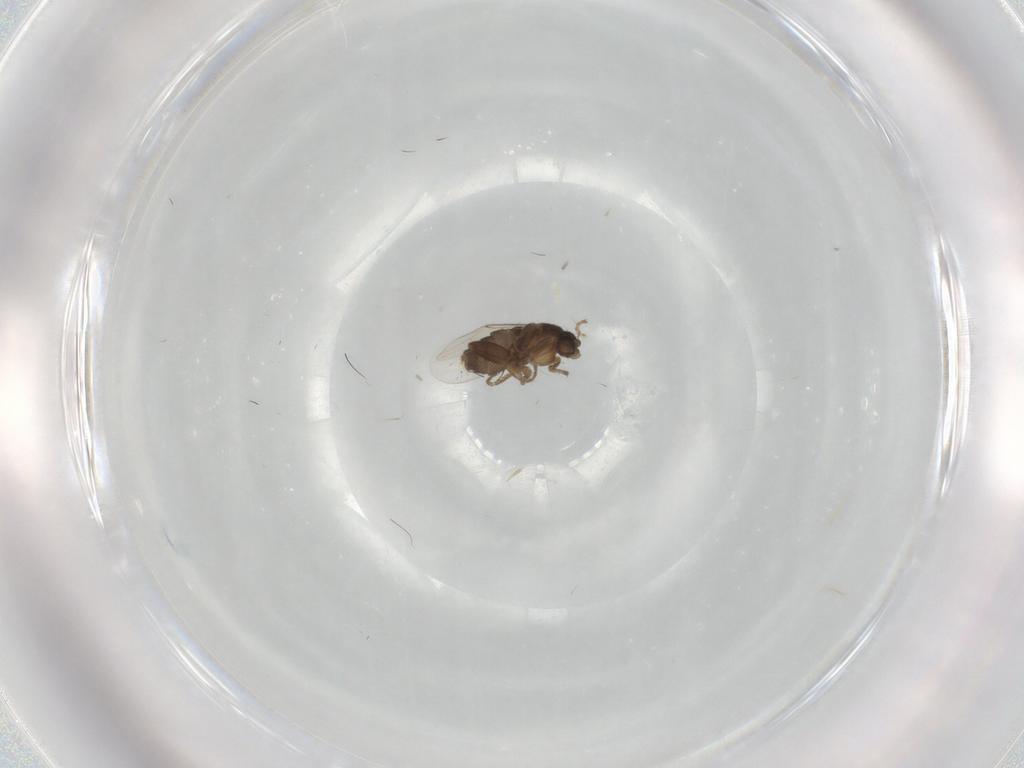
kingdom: Animalia
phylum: Arthropoda
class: Insecta
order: Diptera
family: Phoridae
